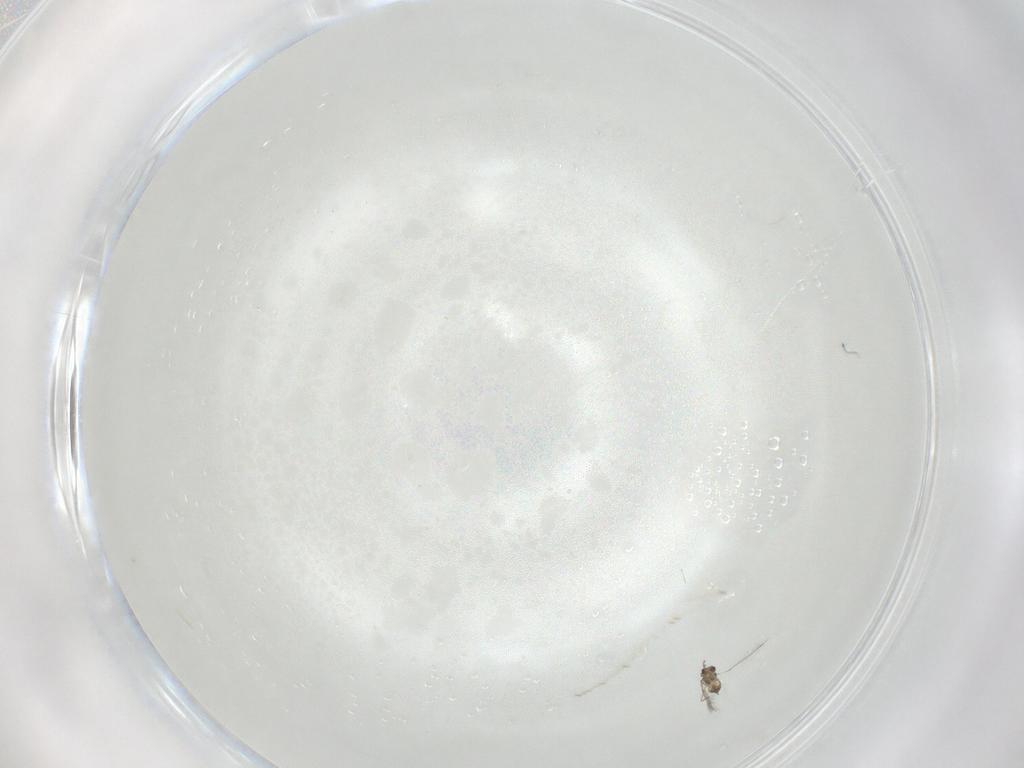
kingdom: Animalia
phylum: Arthropoda
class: Insecta
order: Hymenoptera
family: Mymaridae
